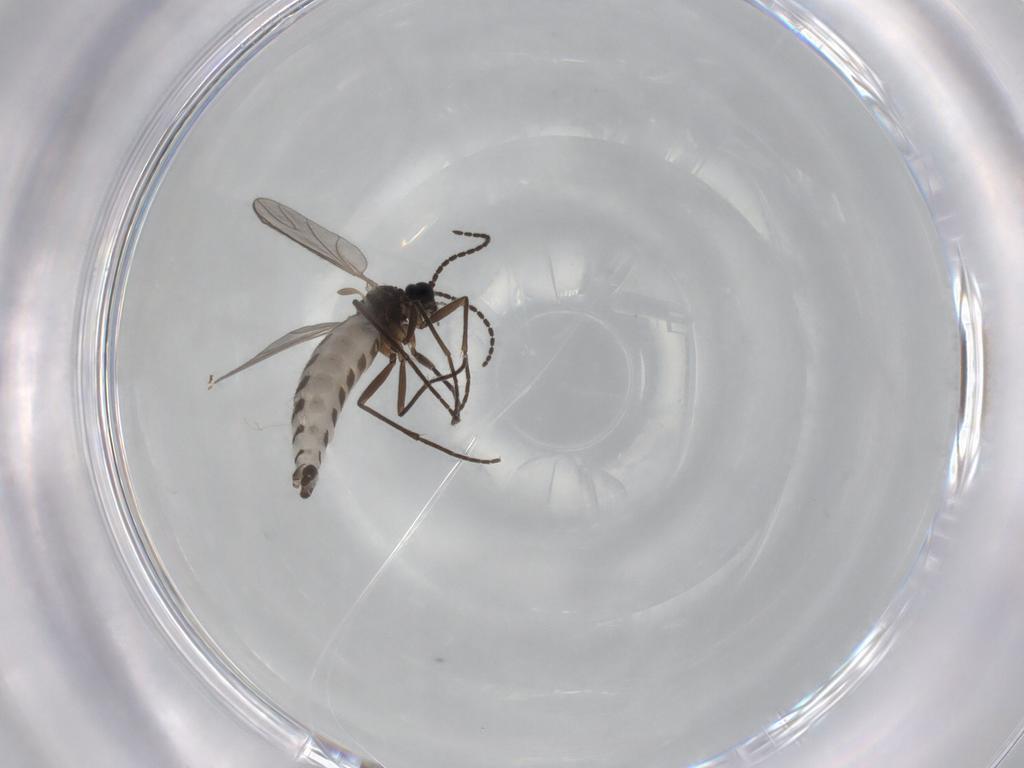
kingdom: Animalia
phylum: Arthropoda
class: Insecta
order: Diptera
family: Sciaridae
